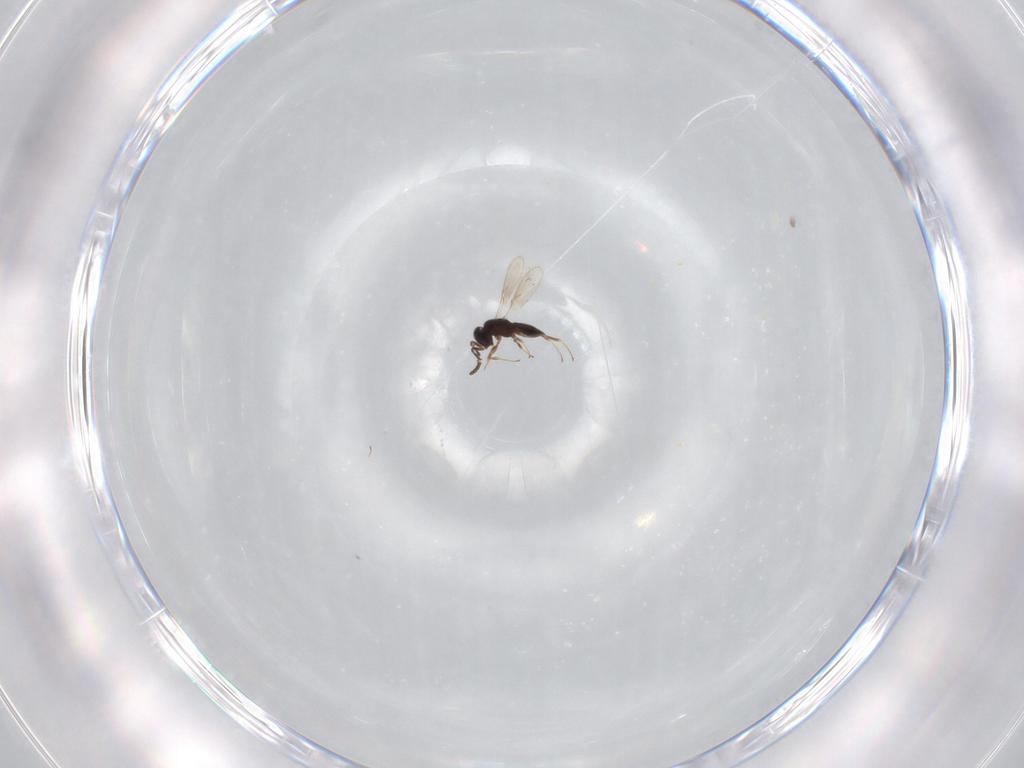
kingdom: Animalia
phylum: Arthropoda
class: Insecta
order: Hymenoptera
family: Scelionidae
